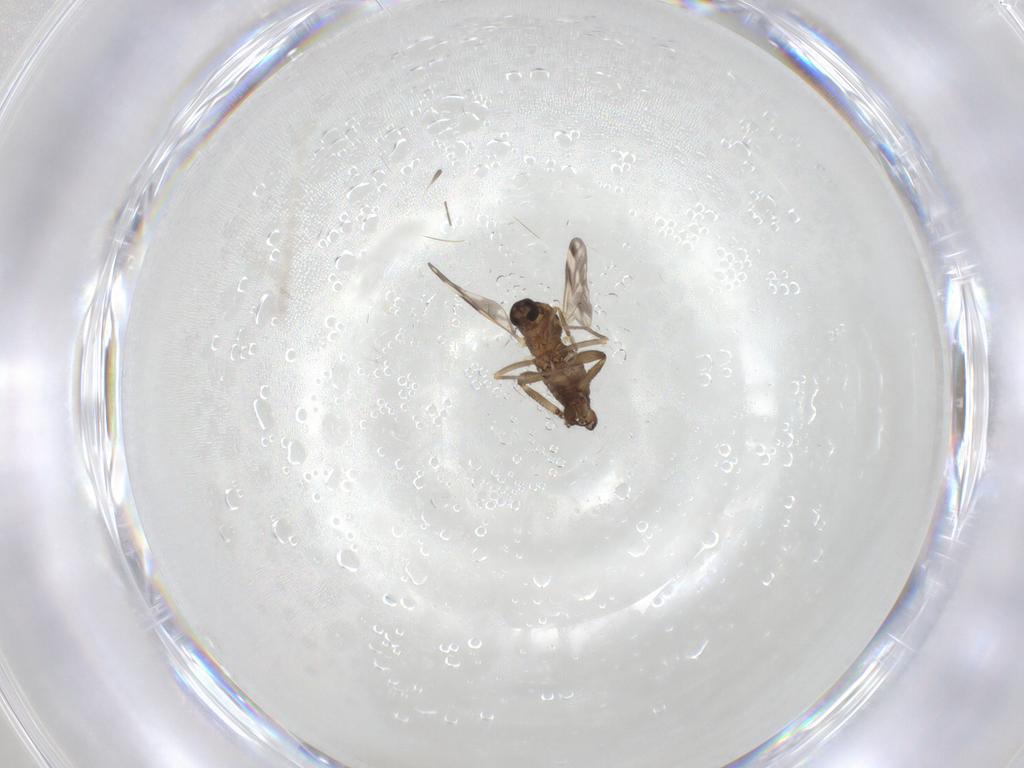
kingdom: Animalia
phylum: Arthropoda
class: Insecta
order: Diptera
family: Ceratopogonidae
